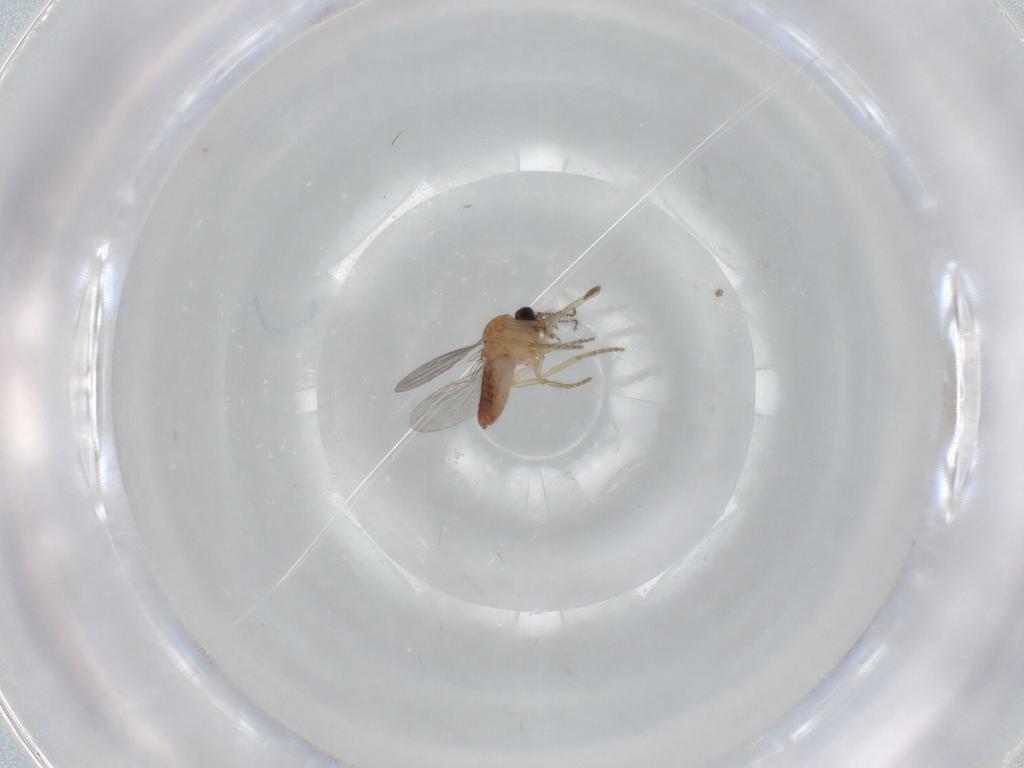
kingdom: Animalia
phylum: Arthropoda
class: Insecta
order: Diptera
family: Ceratopogonidae
